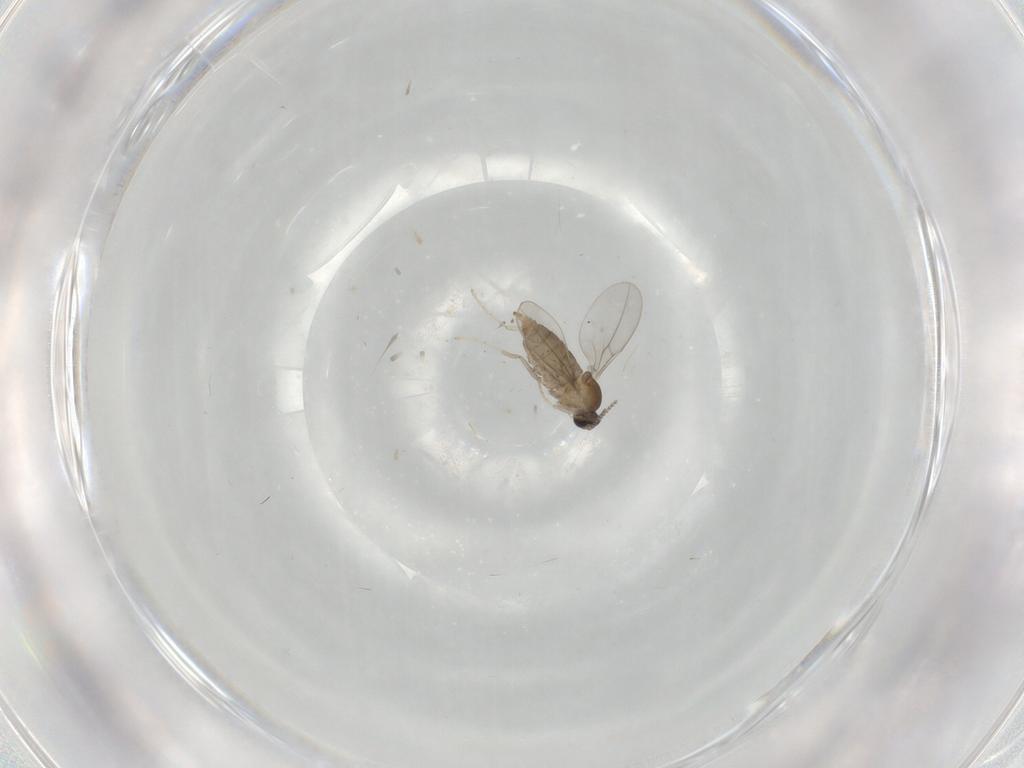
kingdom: Animalia
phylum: Arthropoda
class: Insecta
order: Diptera
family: Cecidomyiidae
